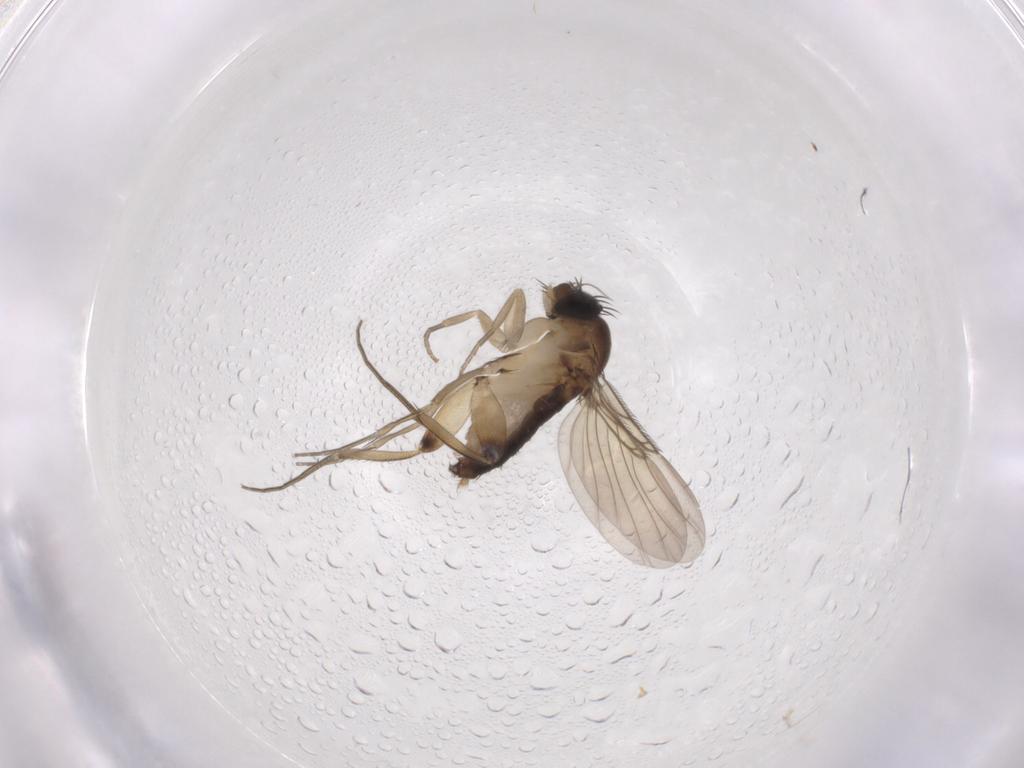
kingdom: Animalia
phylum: Arthropoda
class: Insecta
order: Diptera
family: Phoridae
